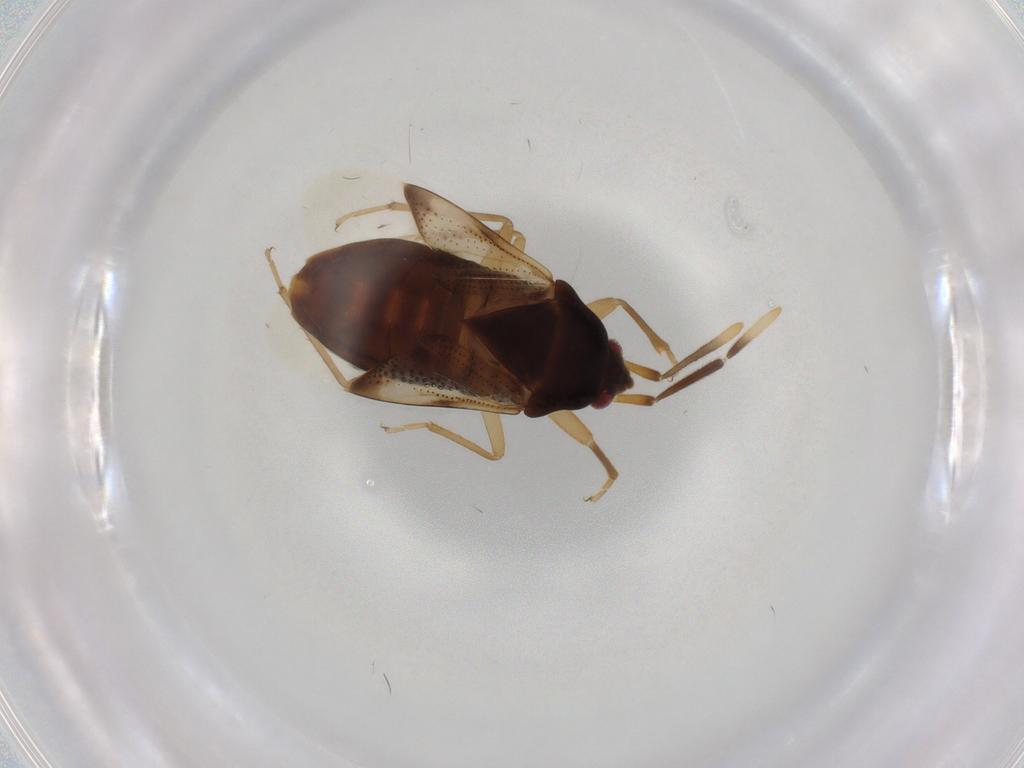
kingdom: Animalia
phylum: Arthropoda
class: Insecta
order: Hemiptera
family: Rhyparochromidae
